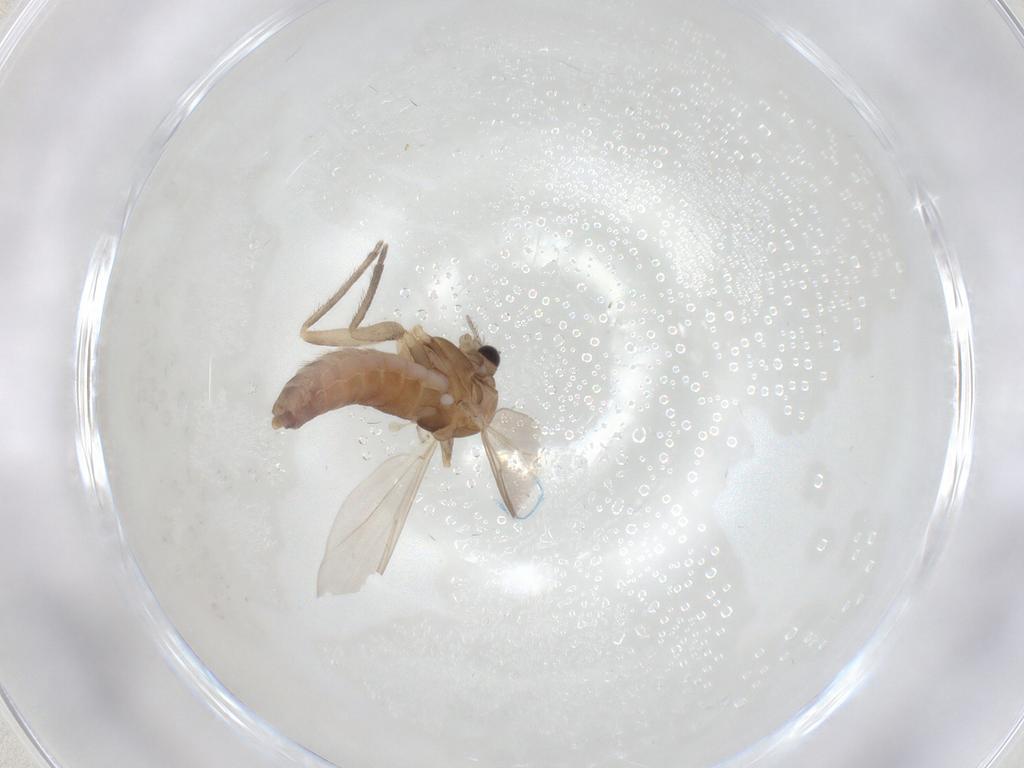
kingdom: Animalia
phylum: Arthropoda
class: Insecta
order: Diptera
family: Chironomidae
